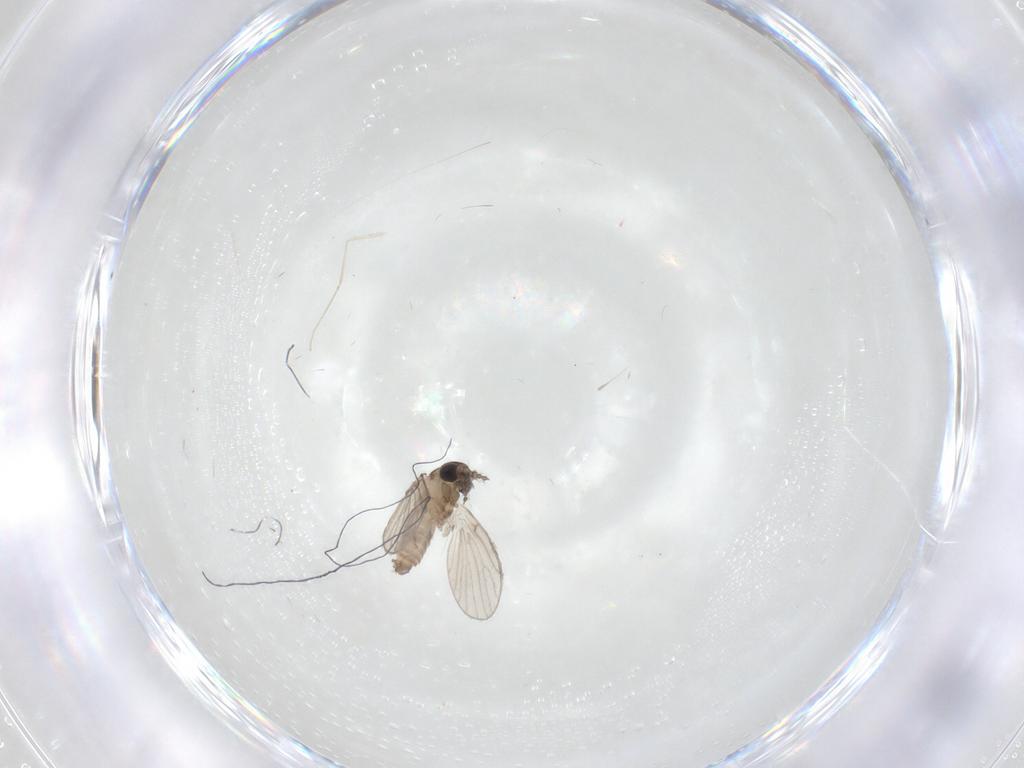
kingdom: Animalia
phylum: Arthropoda
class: Insecta
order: Diptera
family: Cecidomyiidae
